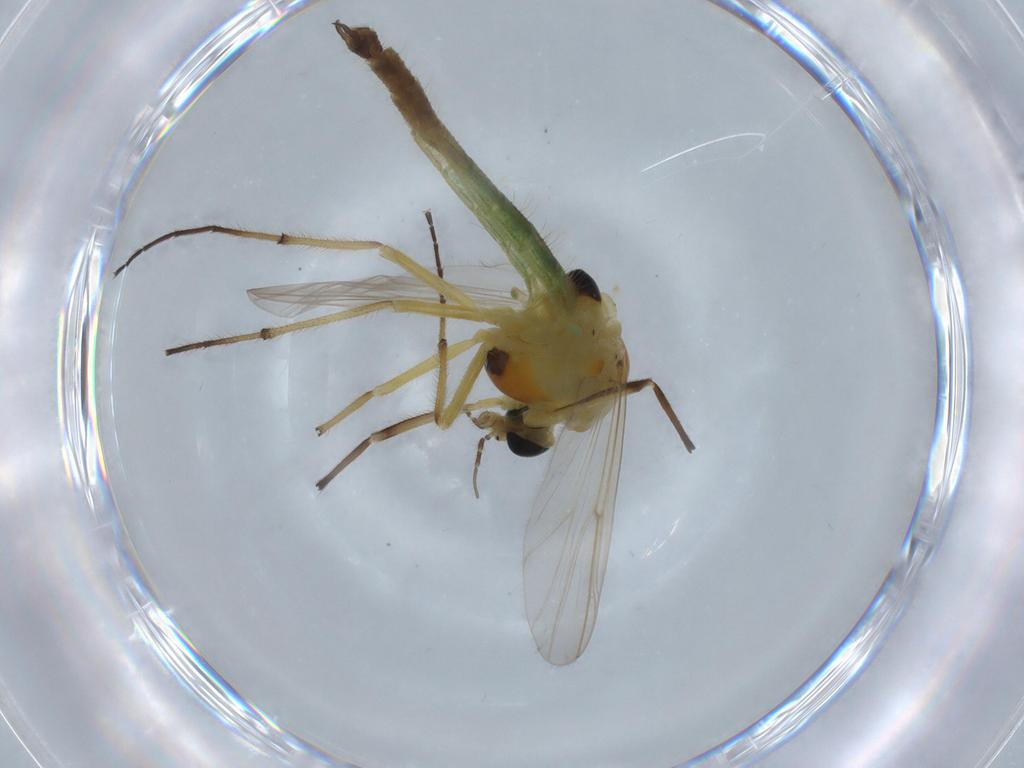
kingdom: Animalia
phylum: Arthropoda
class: Insecta
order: Diptera
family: Chironomidae
